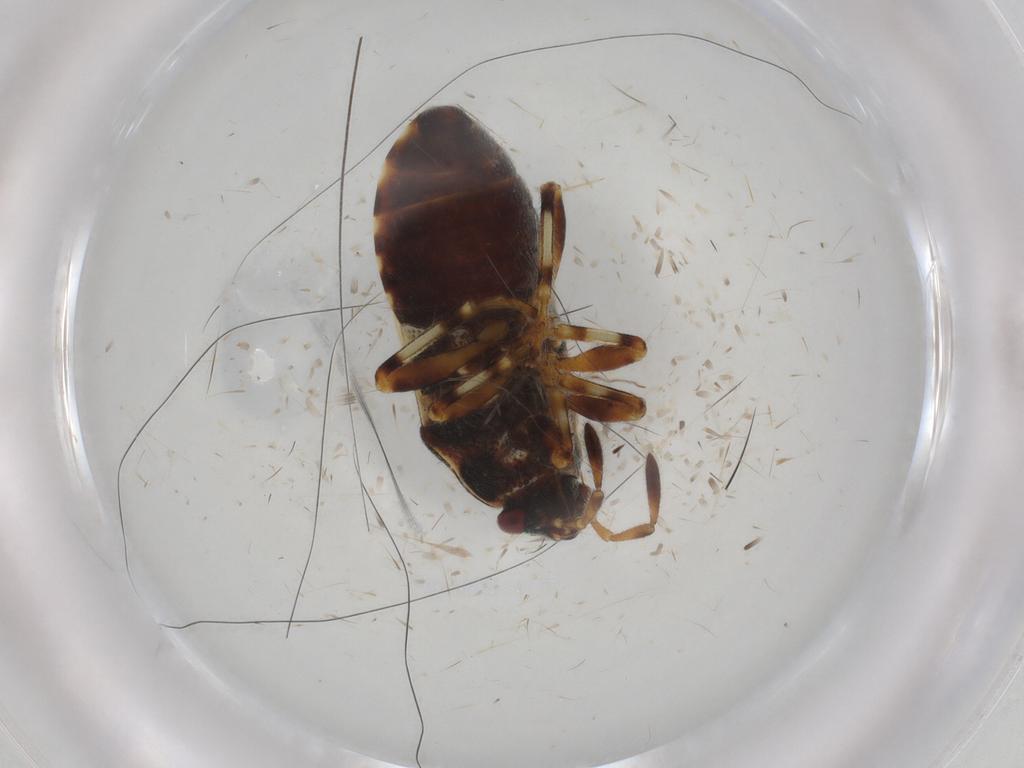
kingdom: Animalia
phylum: Arthropoda
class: Insecta
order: Hemiptera
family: Lygaeidae
